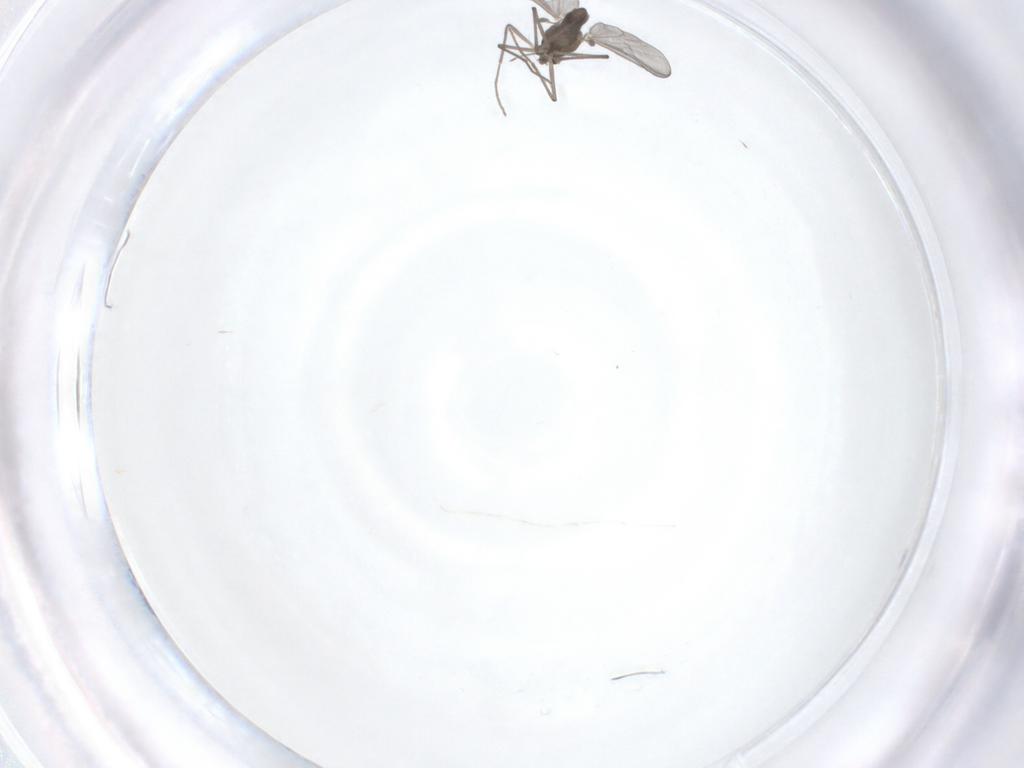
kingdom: Animalia
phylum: Arthropoda
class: Insecta
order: Diptera
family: Chironomidae
